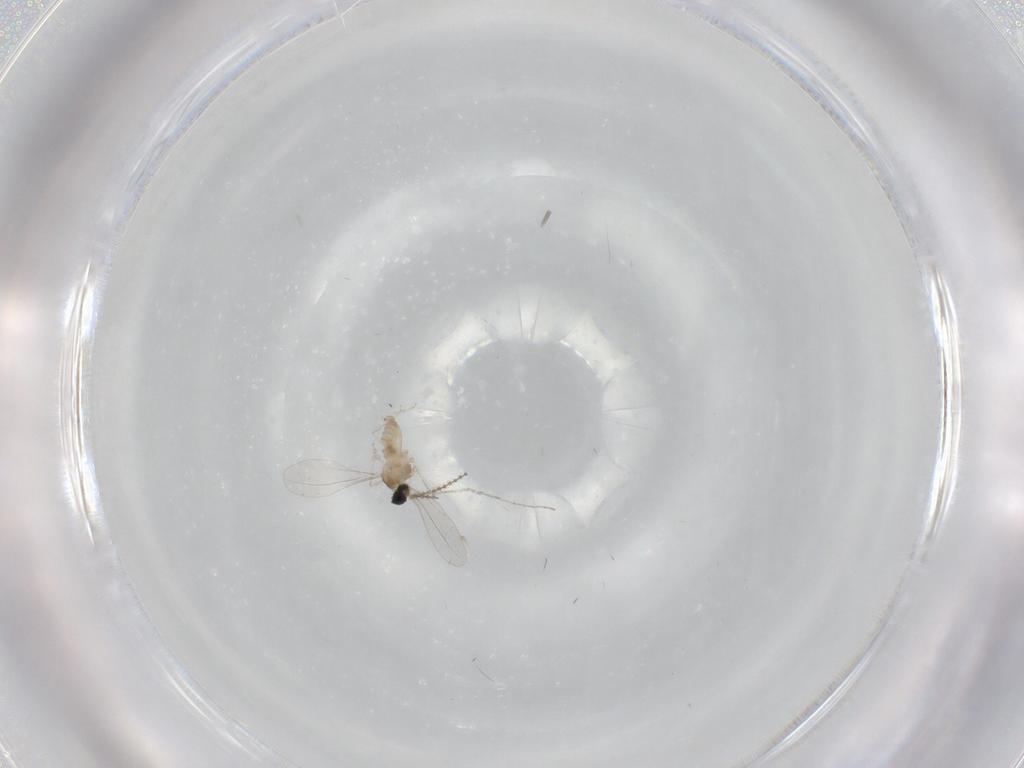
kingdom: Animalia
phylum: Arthropoda
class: Insecta
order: Diptera
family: Cecidomyiidae
